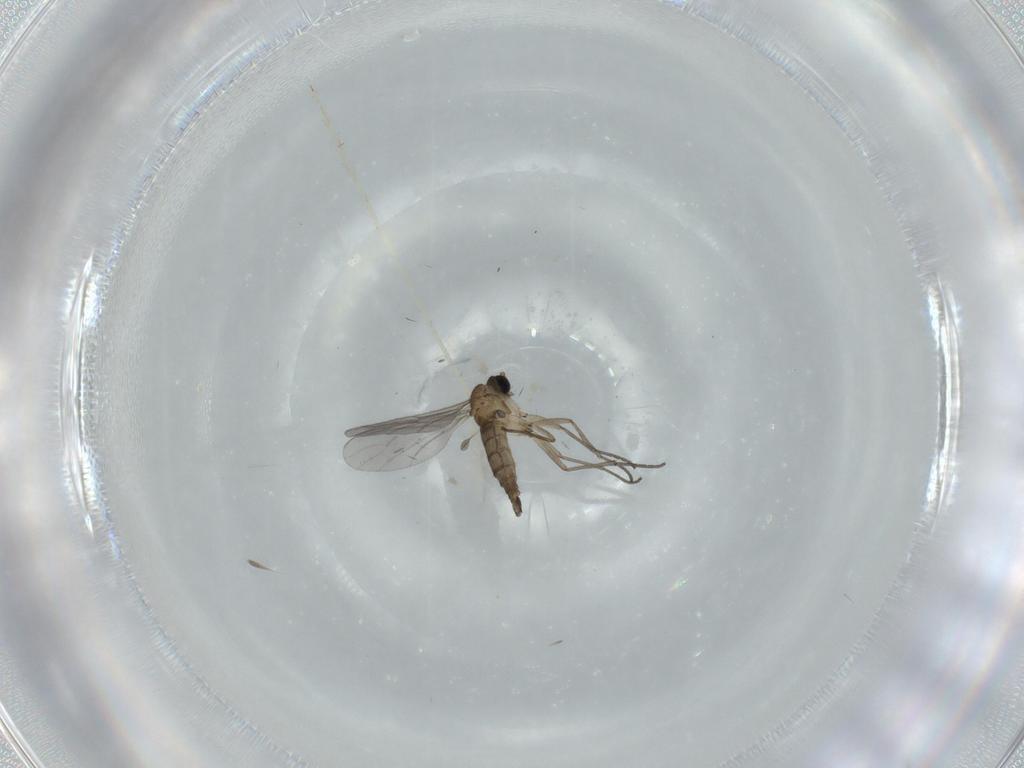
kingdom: Animalia
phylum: Arthropoda
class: Insecta
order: Diptera
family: Sciaridae
